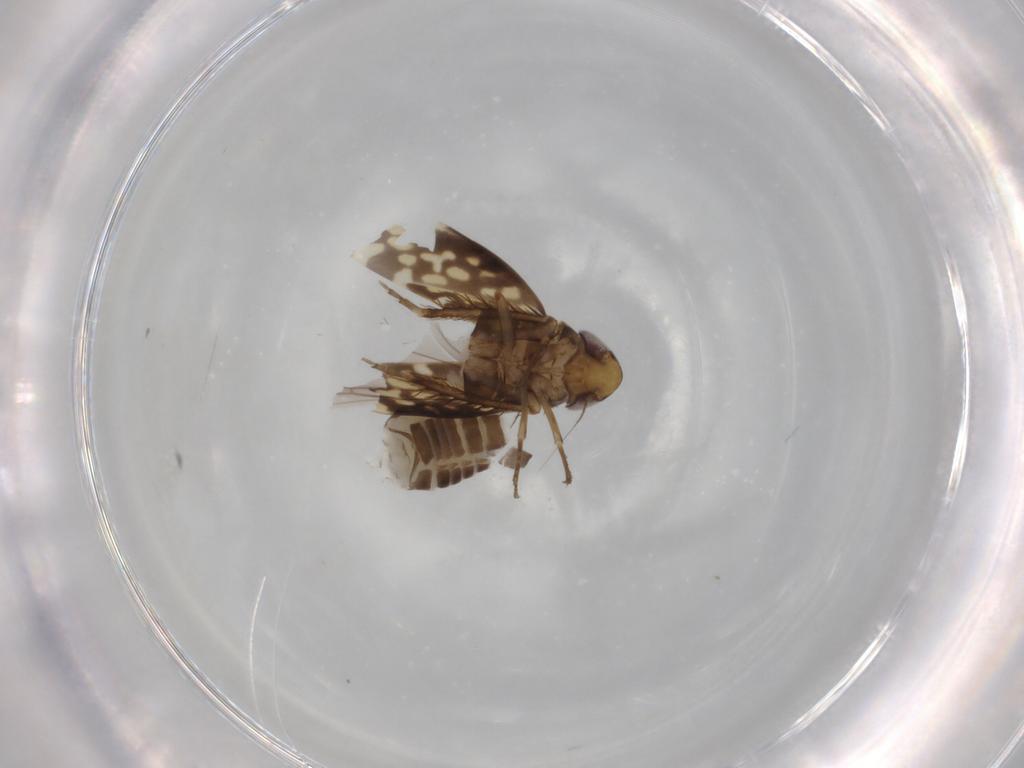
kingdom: Animalia
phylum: Arthropoda
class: Insecta
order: Hemiptera
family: Cicadellidae
